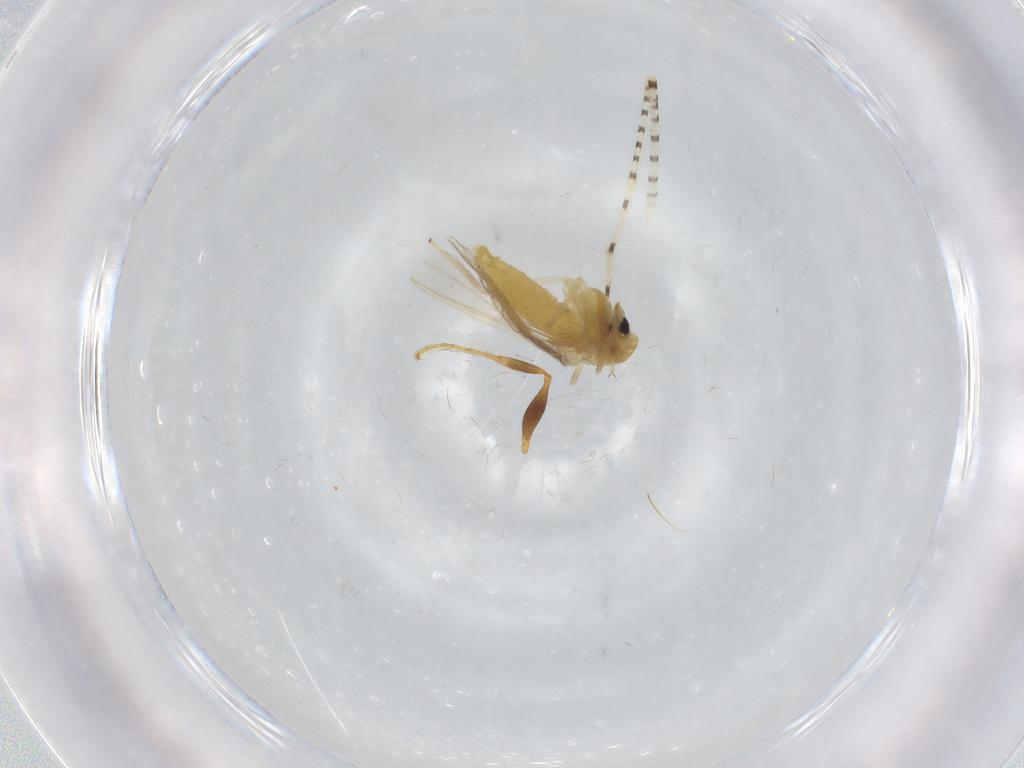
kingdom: Animalia
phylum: Arthropoda
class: Insecta
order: Diptera
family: Chironomidae
